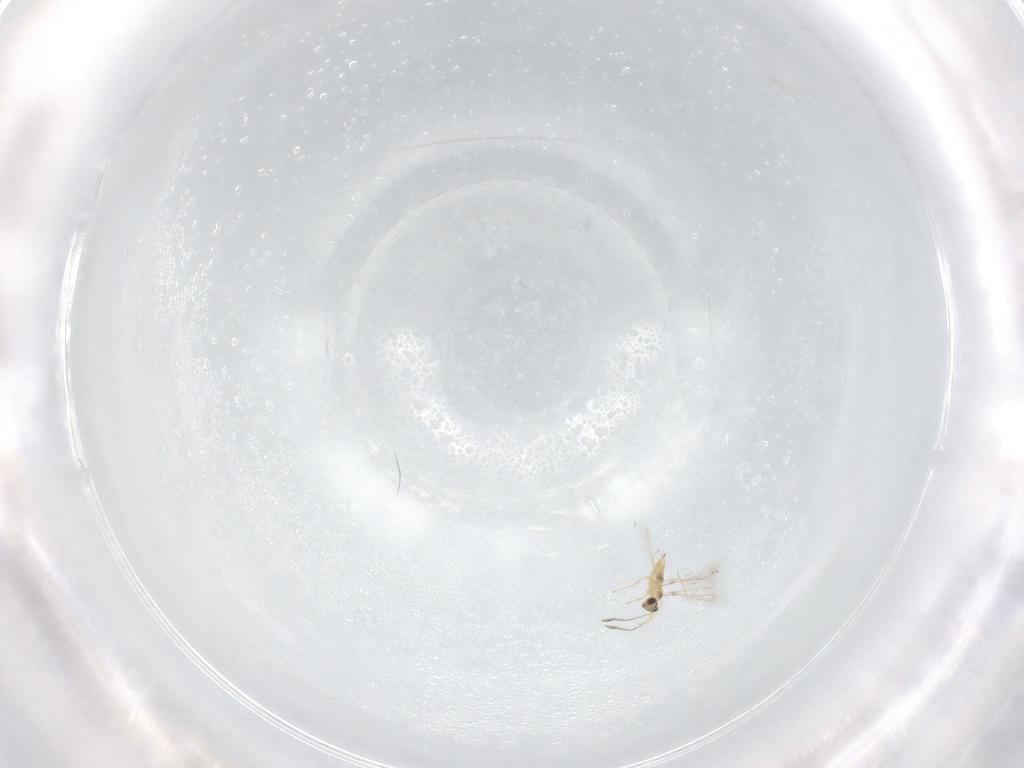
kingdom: Animalia
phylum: Arthropoda
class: Insecta
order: Hymenoptera
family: Mymaridae
